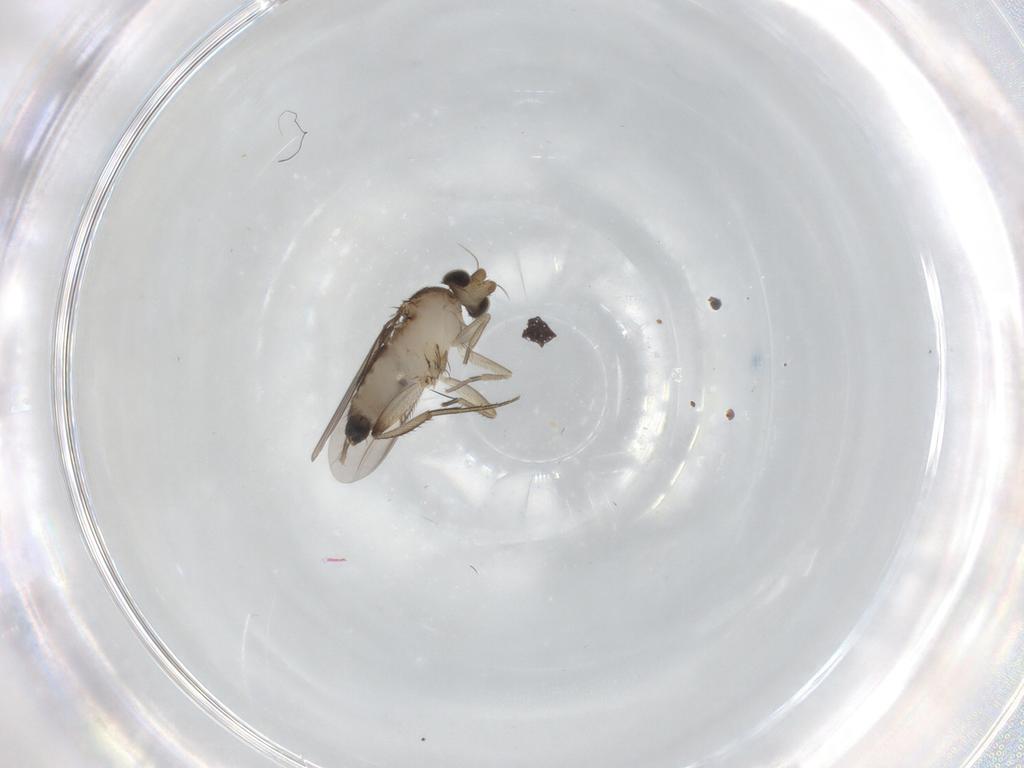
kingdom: Animalia
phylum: Arthropoda
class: Insecta
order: Diptera
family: Phoridae
